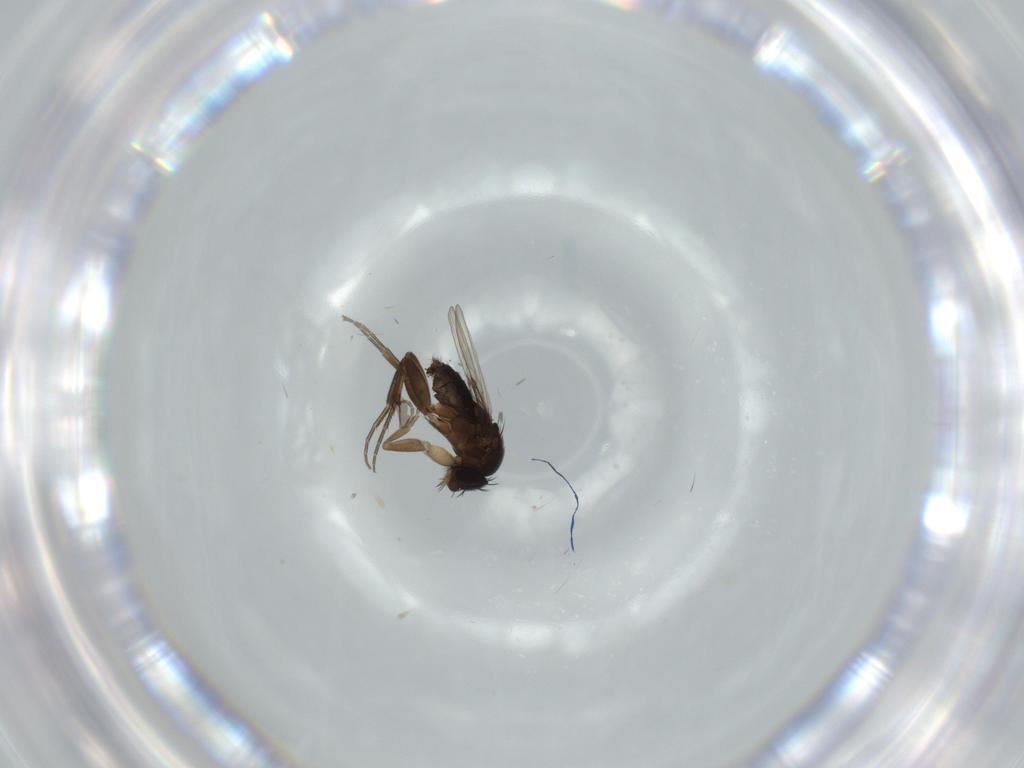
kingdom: Animalia
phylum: Arthropoda
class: Insecta
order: Diptera
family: Phoridae
